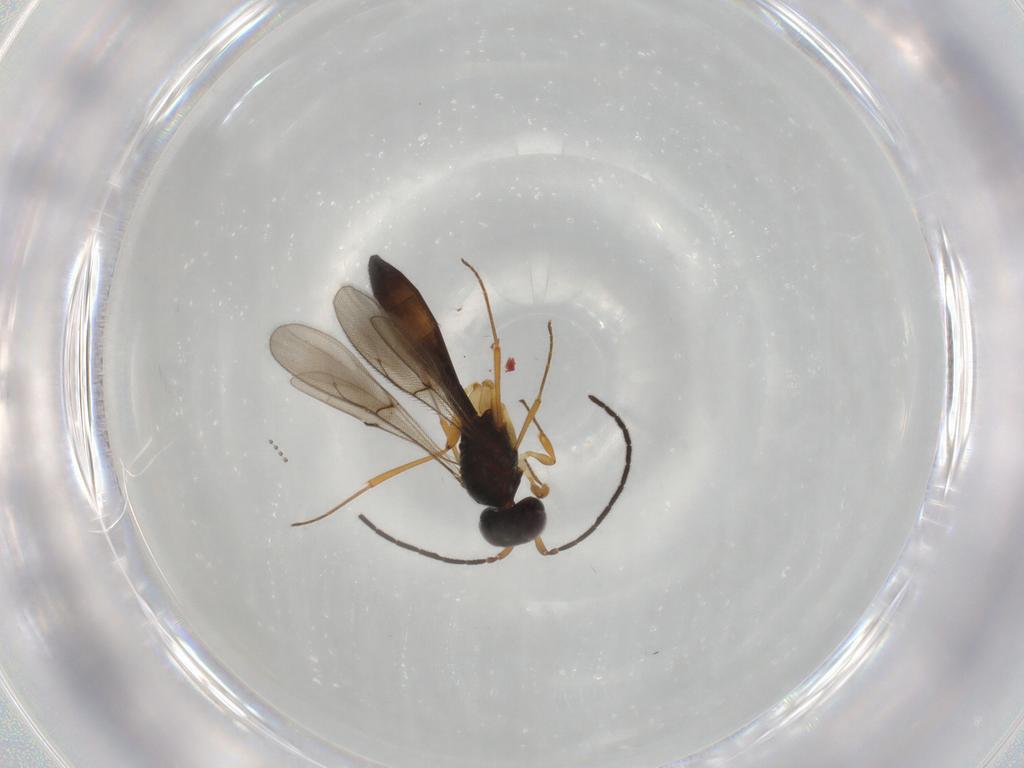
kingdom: Animalia
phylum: Arthropoda
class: Insecta
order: Hymenoptera
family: Scelionidae
